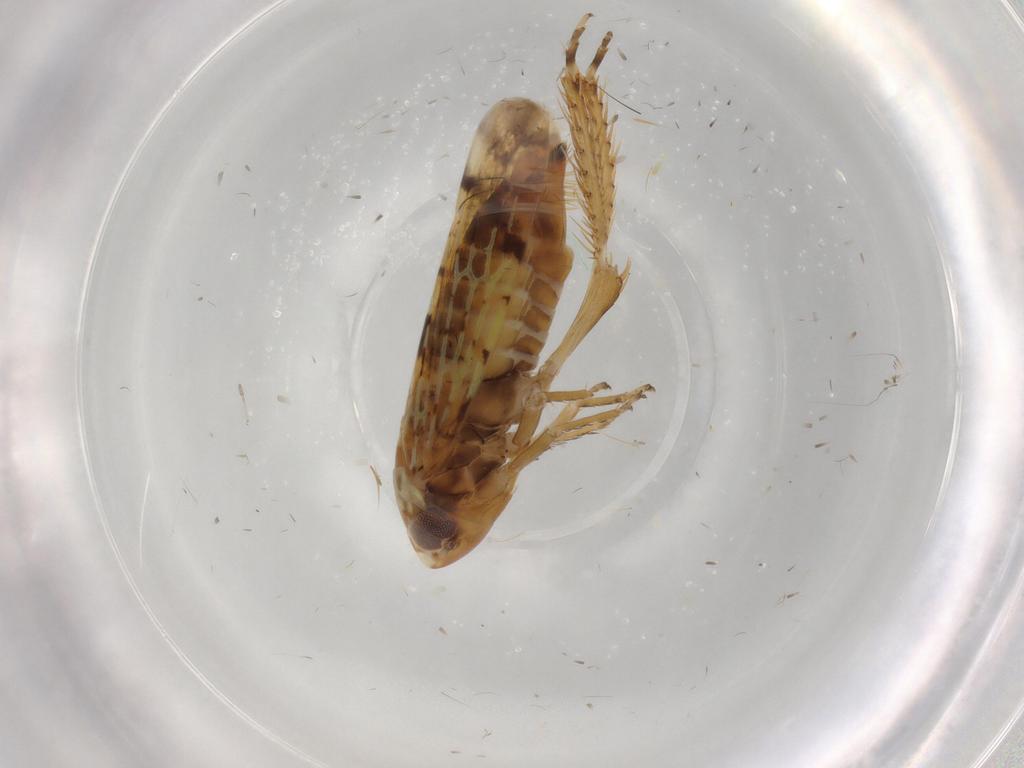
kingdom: Animalia
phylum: Arthropoda
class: Insecta
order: Hemiptera
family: Cicadellidae
